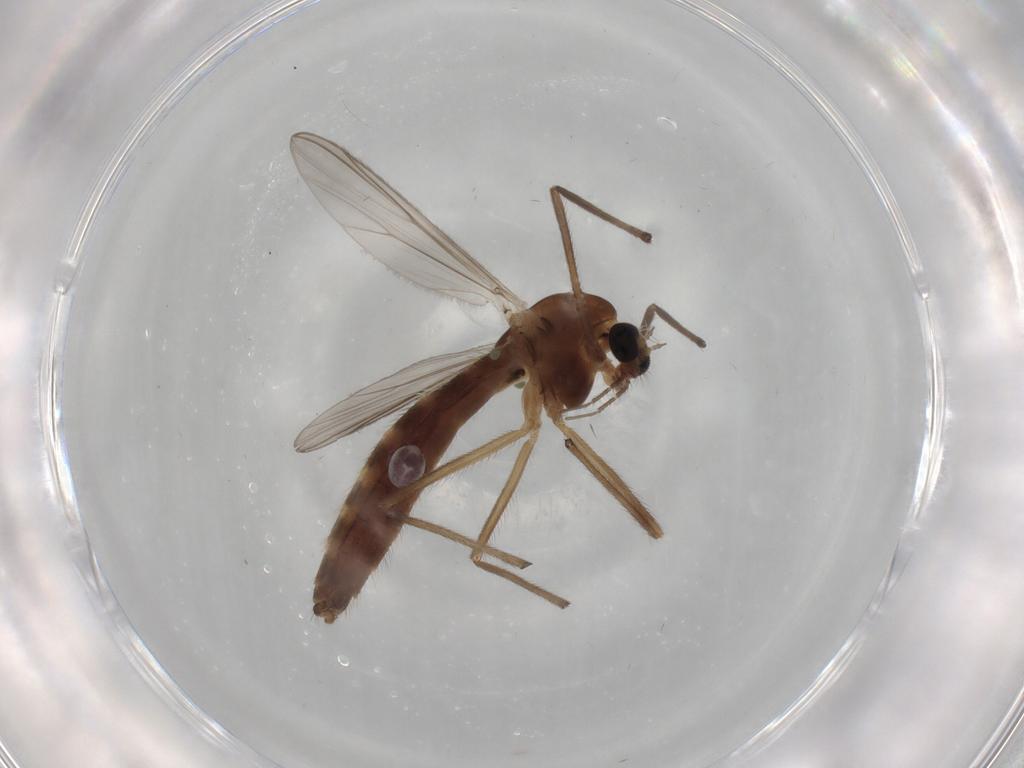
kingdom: Animalia
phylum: Arthropoda
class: Insecta
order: Diptera
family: Chironomidae
